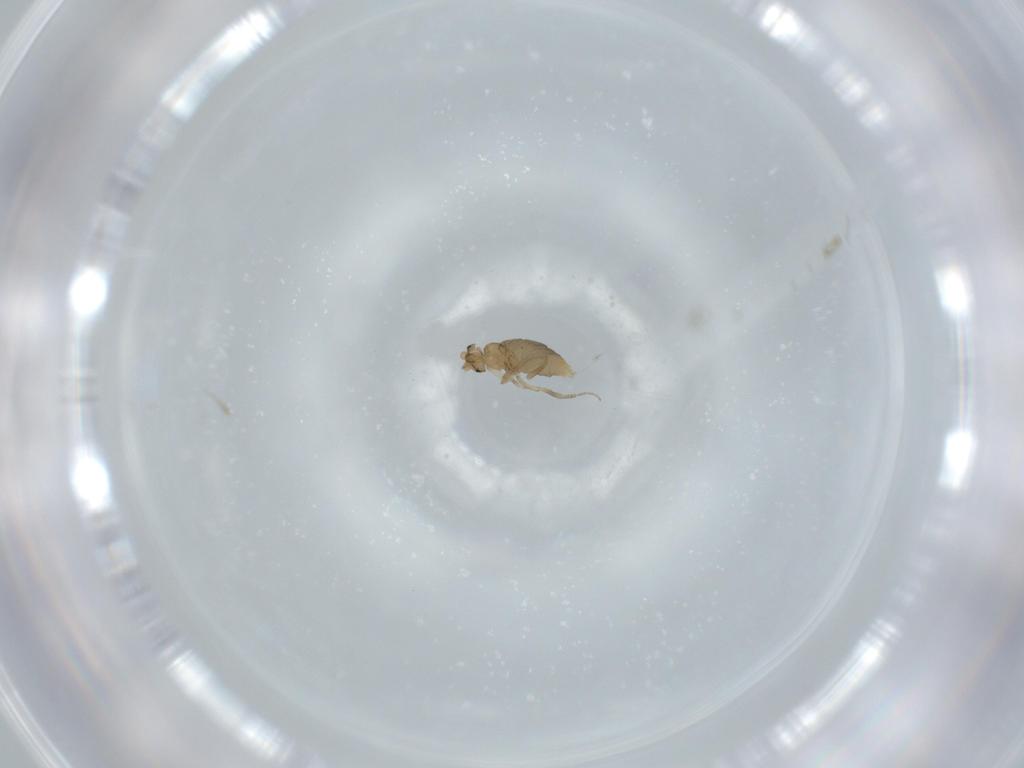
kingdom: Animalia
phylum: Arthropoda
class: Insecta
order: Diptera
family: Phoridae
